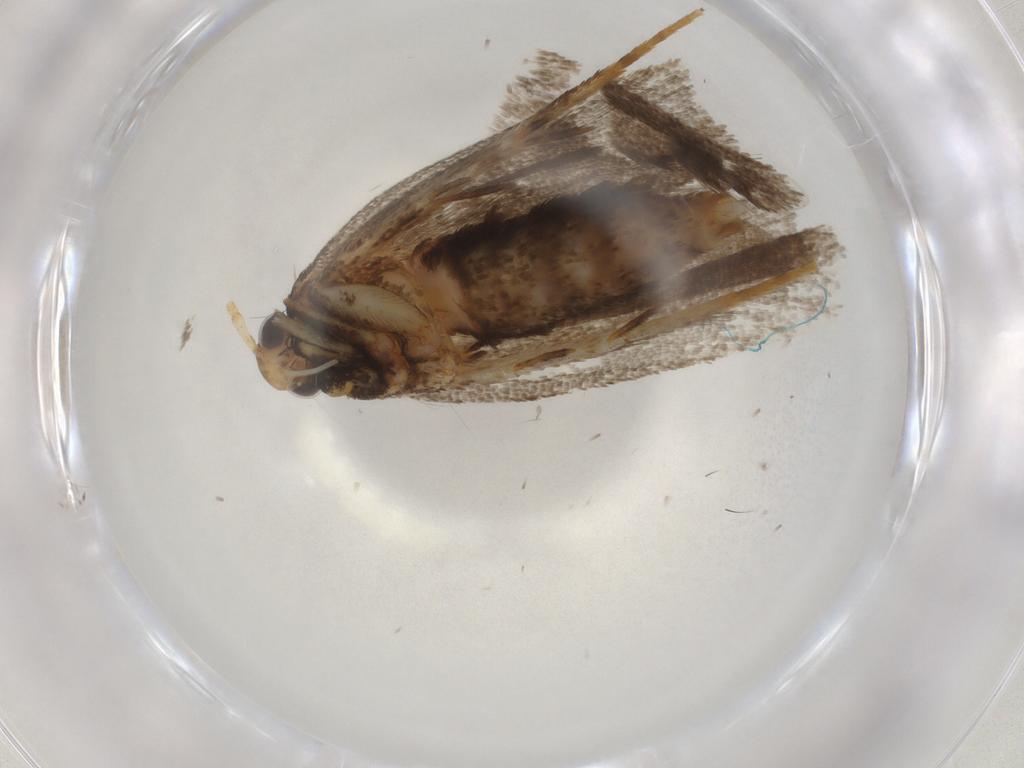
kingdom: Animalia
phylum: Arthropoda
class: Insecta
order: Lepidoptera
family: Lecithoceridae
